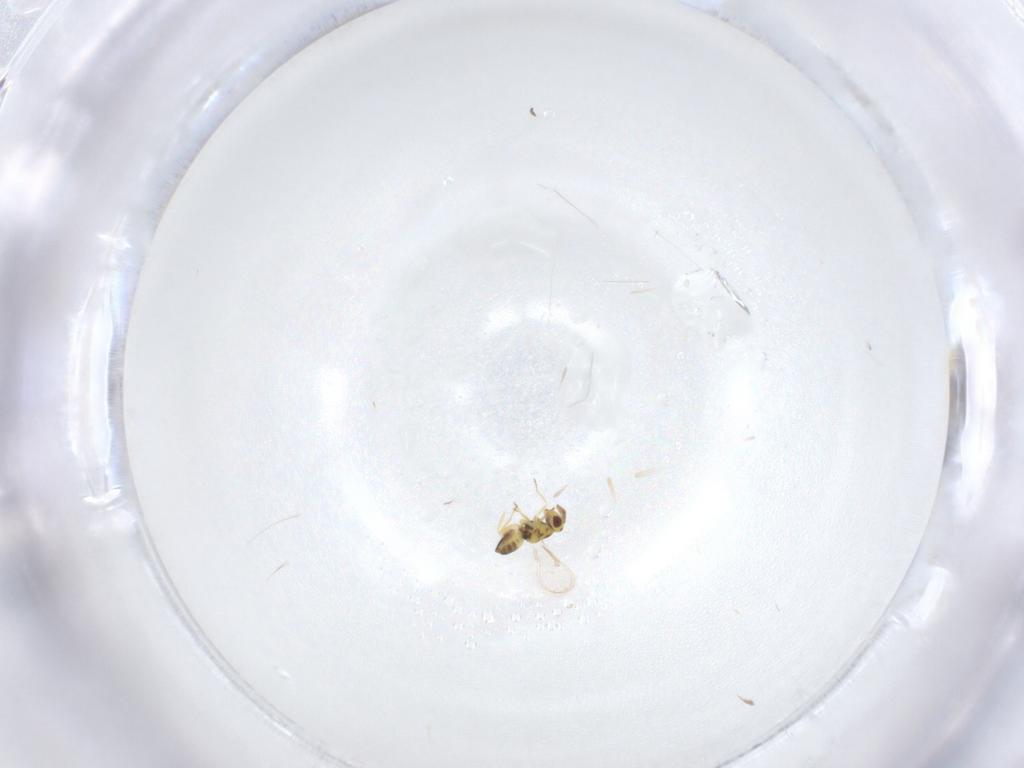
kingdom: Animalia
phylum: Arthropoda
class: Insecta
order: Hymenoptera
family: Eulophidae
